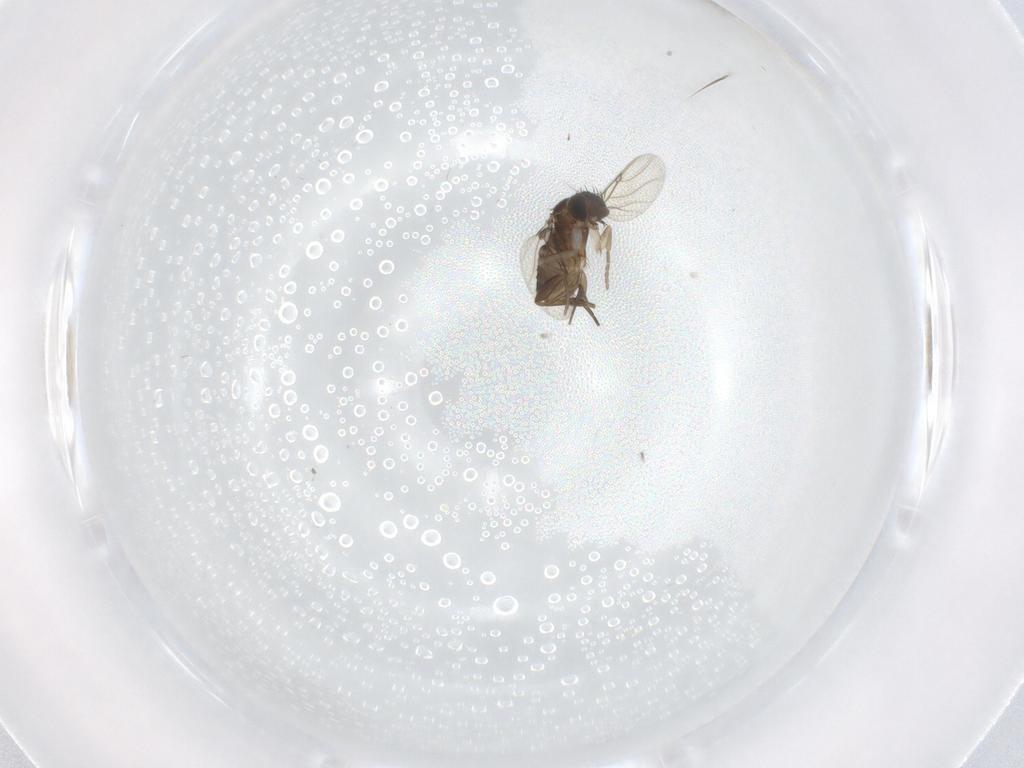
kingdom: Animalia
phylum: Arthropoda
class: Insecta
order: Diptera
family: Phoridae
